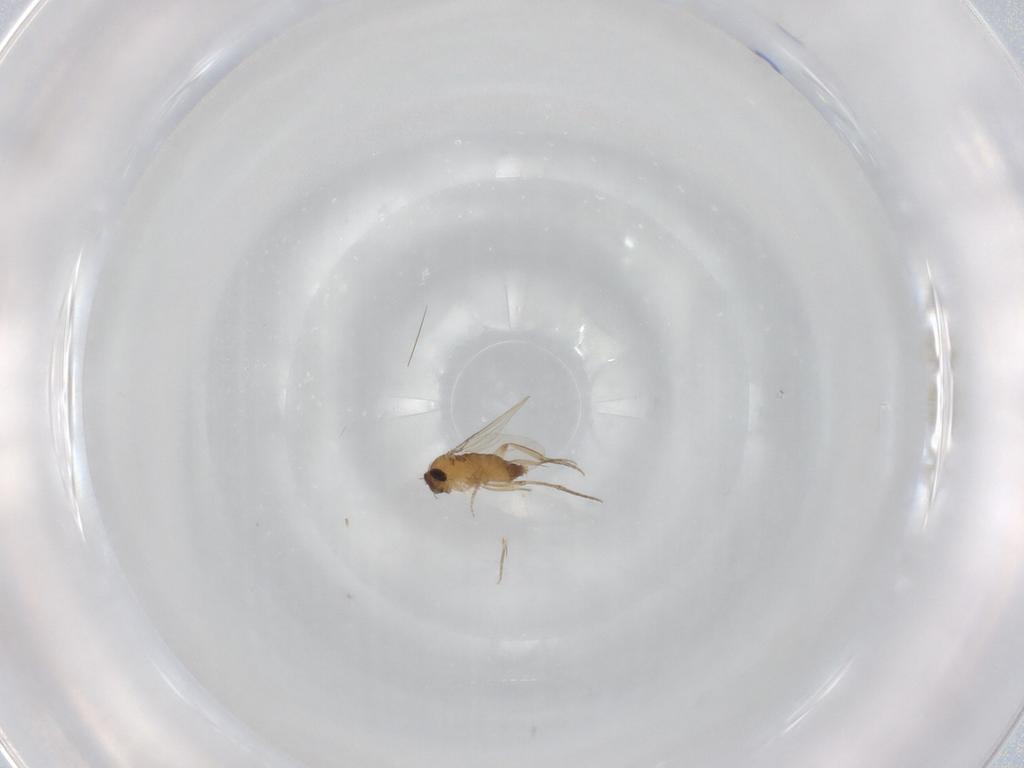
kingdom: Animalia
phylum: Arthropoda
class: Insecta
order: Diptera
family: Phoridae
